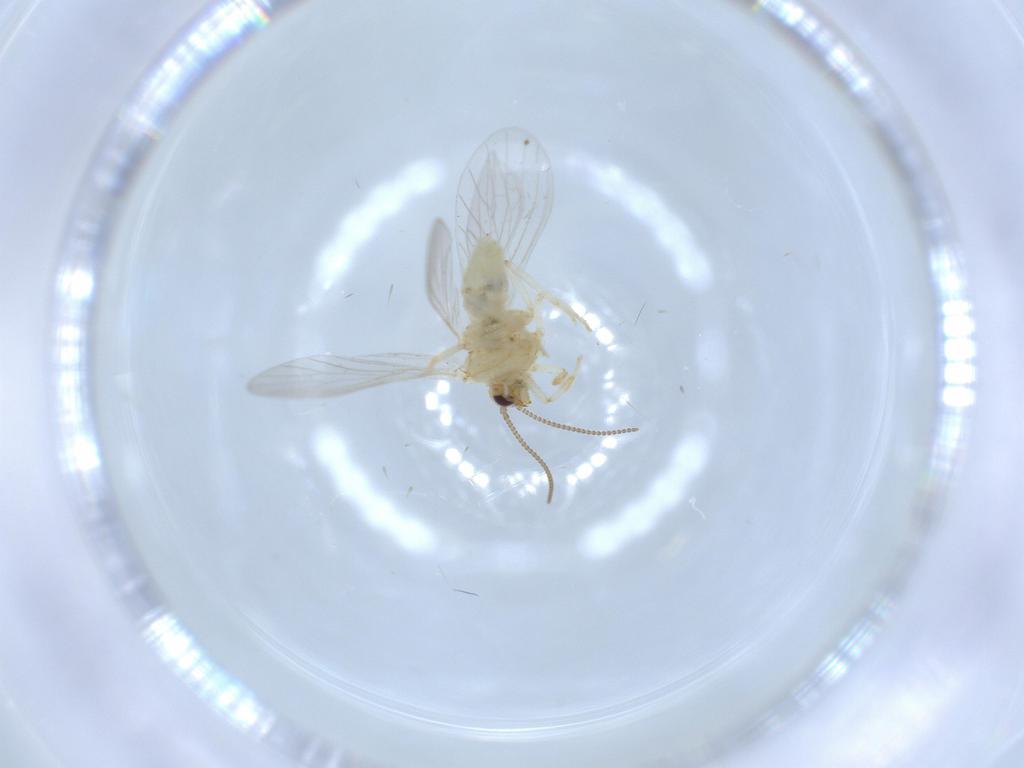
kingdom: Animalia
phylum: Arthropoda
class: Insecta
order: Neuroptera
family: Coniopterygidae
